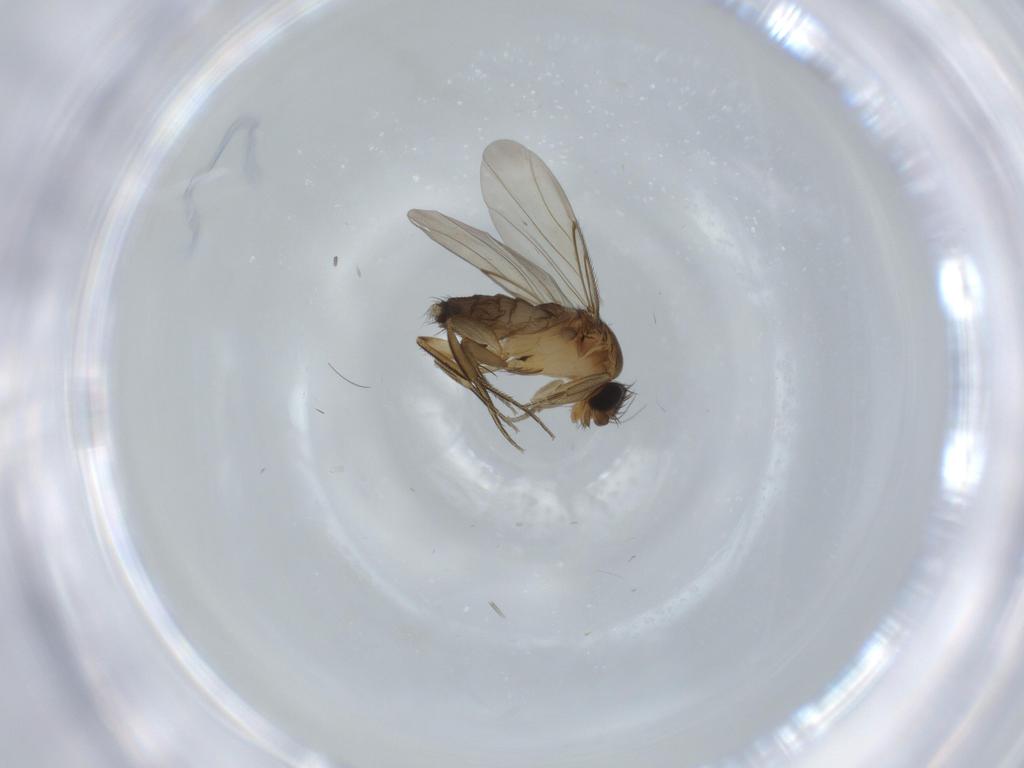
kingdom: Animalia
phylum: Arthropoda
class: Insecta
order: Diptera
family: Phoridae
